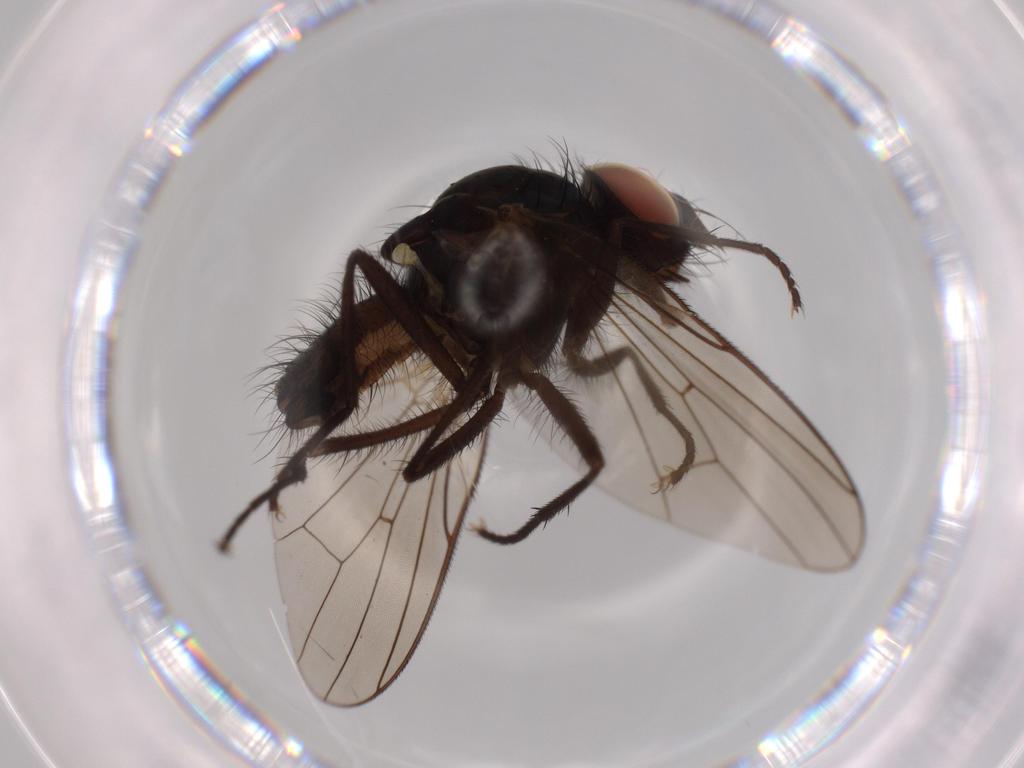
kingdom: Animalia
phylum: Arthropoda
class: Insecta
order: Diptera
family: Anthomyiidae
